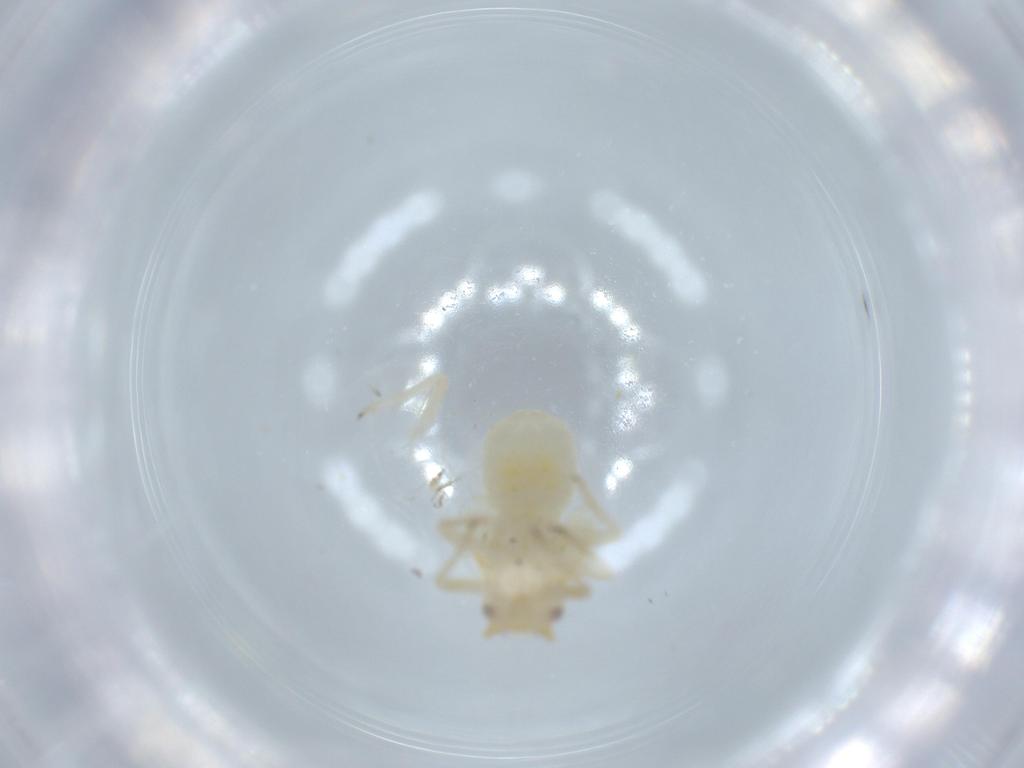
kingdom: Animalia
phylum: Arthropoda
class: Insecta
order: Hemiptera
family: Psyllidae
